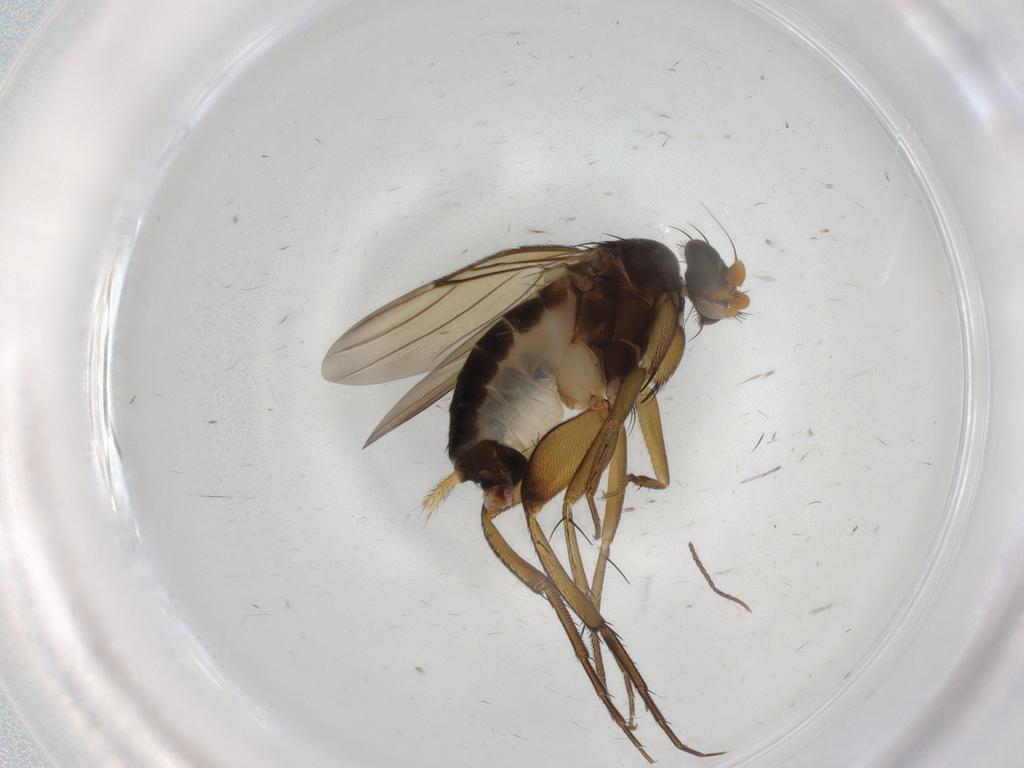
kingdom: Animalia
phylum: Arthropoda
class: Insecta
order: Diptera
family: Phoridae
